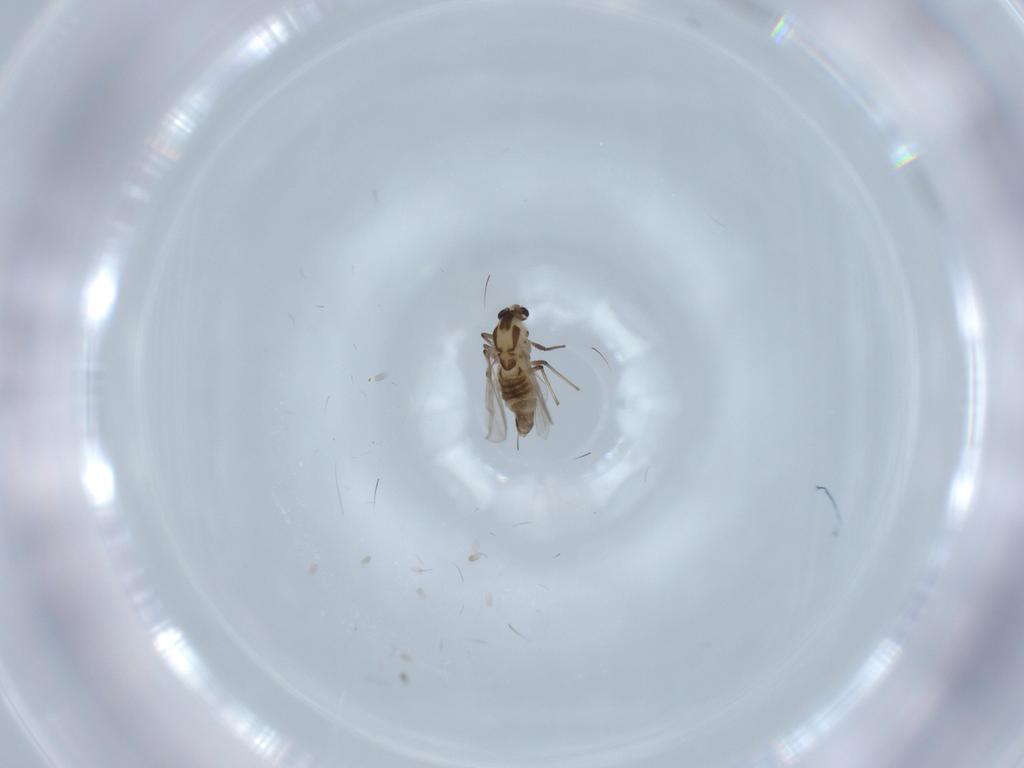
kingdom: Animalia
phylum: Arthropoda
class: Insecta
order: Diptera
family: Chironomidae
